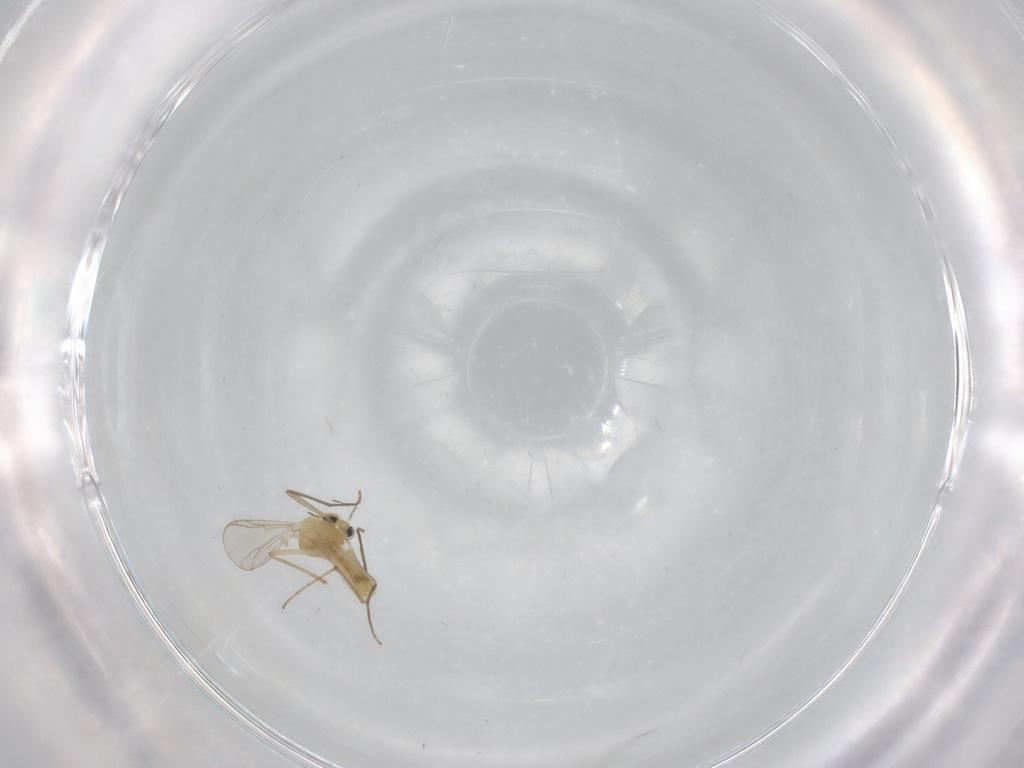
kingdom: Animalia
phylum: Arthropoda
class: Insecta
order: Diptera
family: Chironomidae
